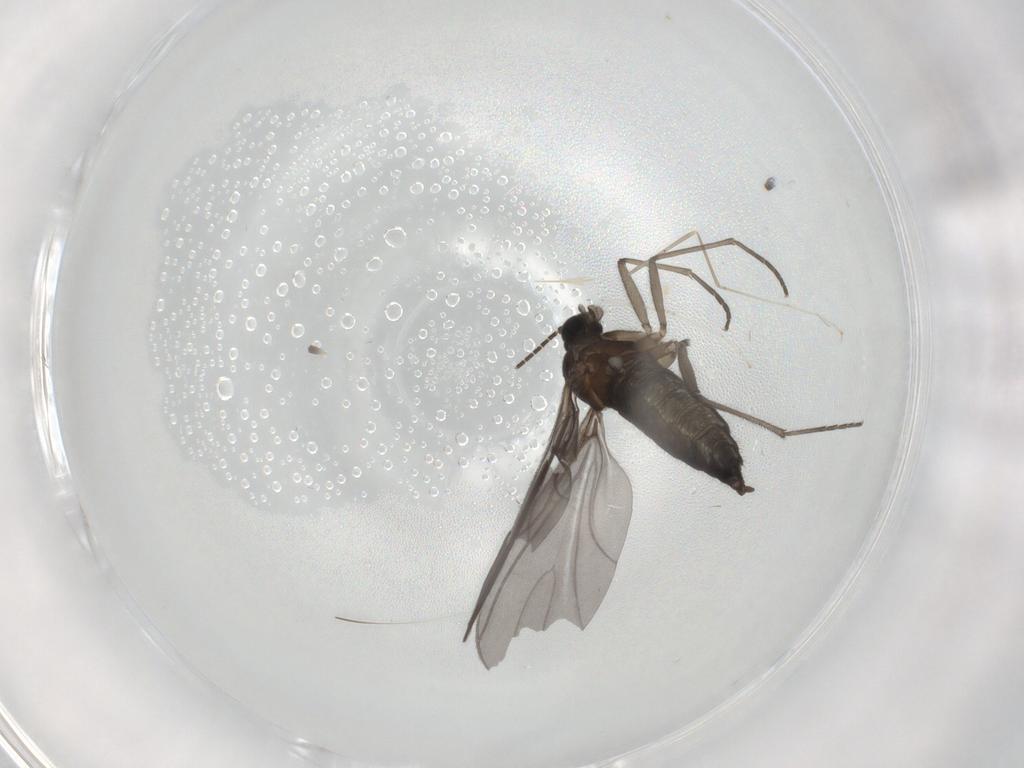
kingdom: Animalia
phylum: Arthropoda
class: Insecta
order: Diptera
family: Sciaridae
